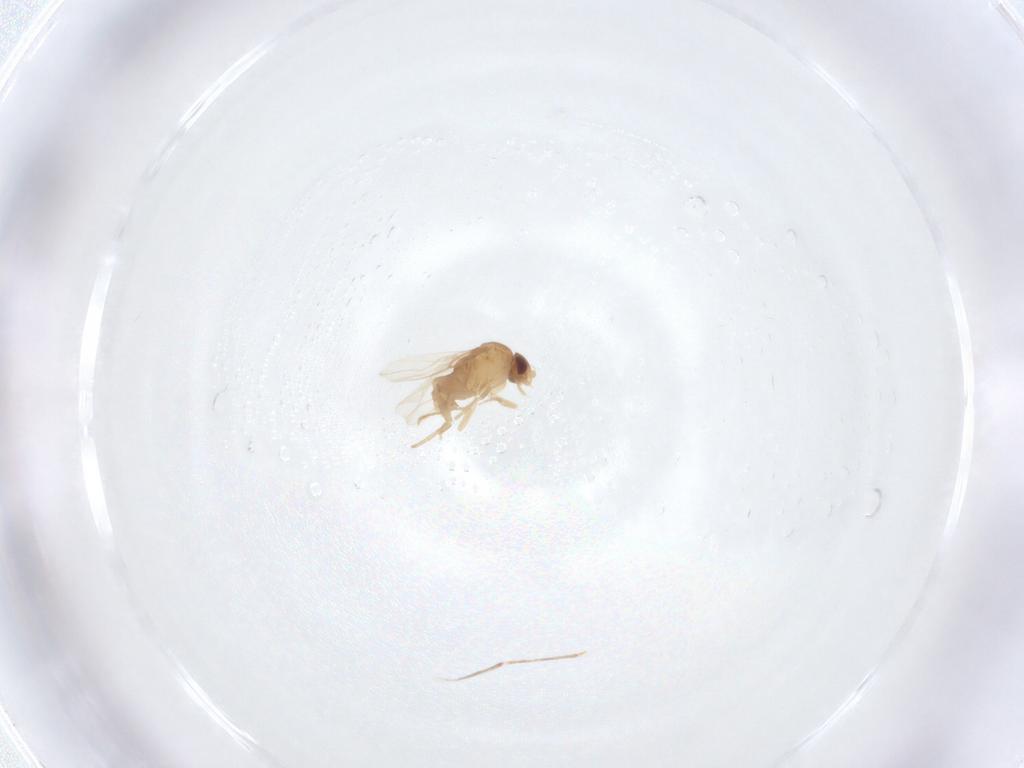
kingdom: Animalia
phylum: Arthropoda
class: Insecta
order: Diptera
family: Cecidomyiidae
